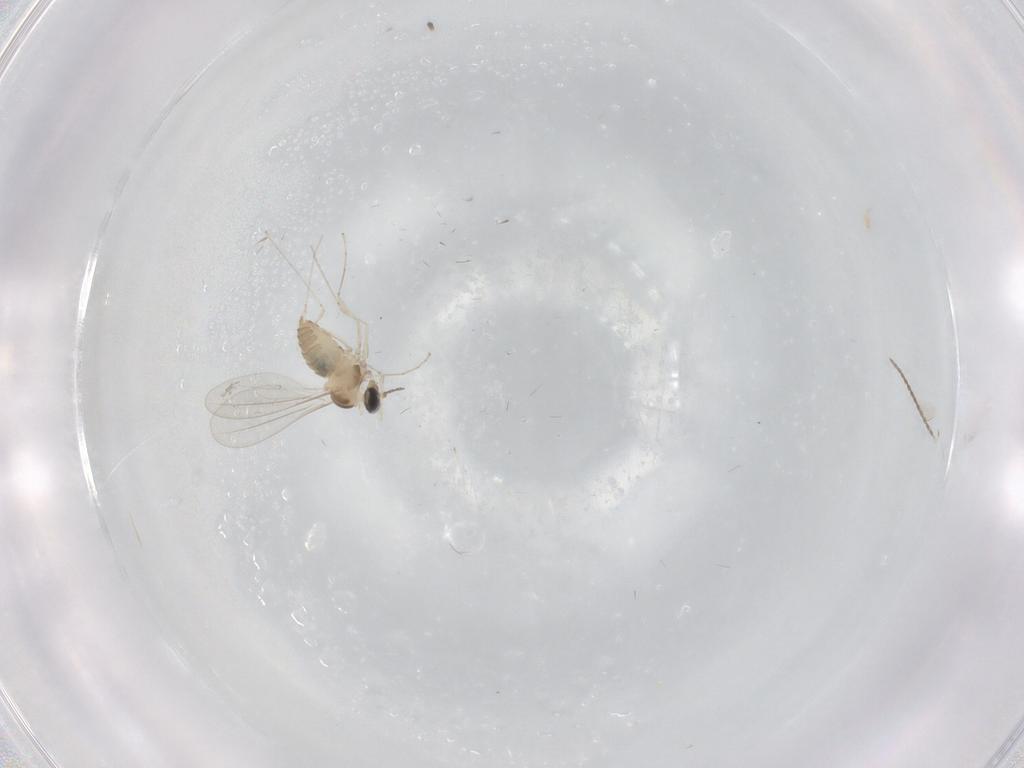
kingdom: Animalia
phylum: Arthropoda
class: Insecta
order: Diptera
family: Cecidomyiidae
